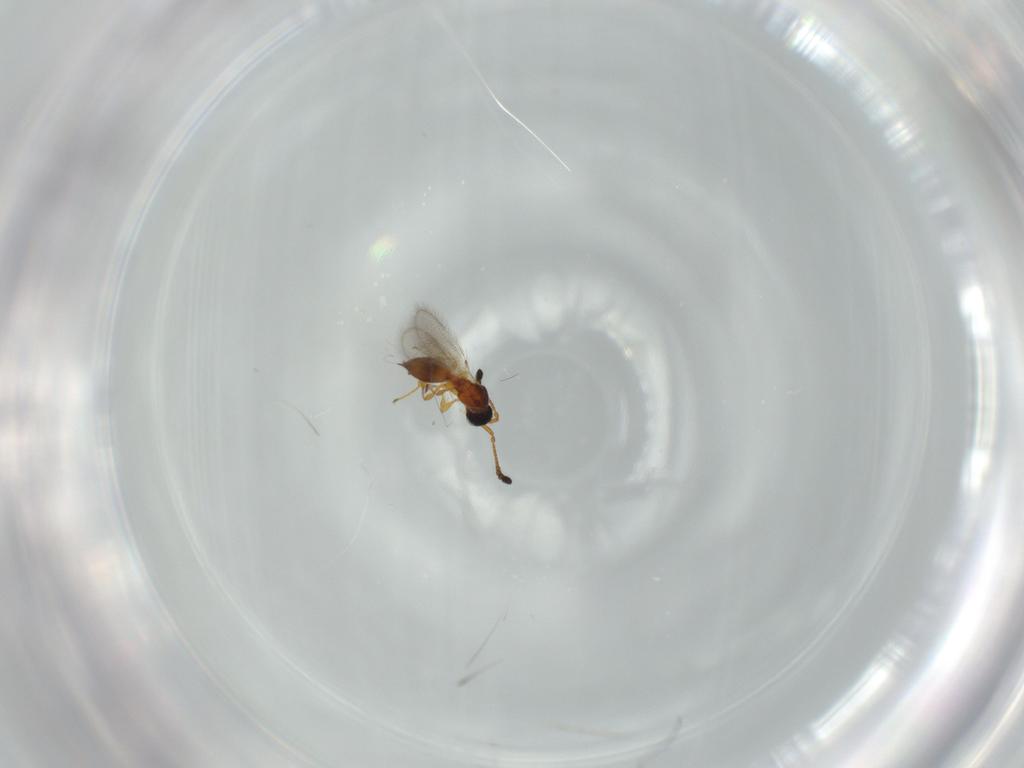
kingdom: Animalia
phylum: Arthropoda
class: Insecta
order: Hymenoptera
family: Diapriidae
